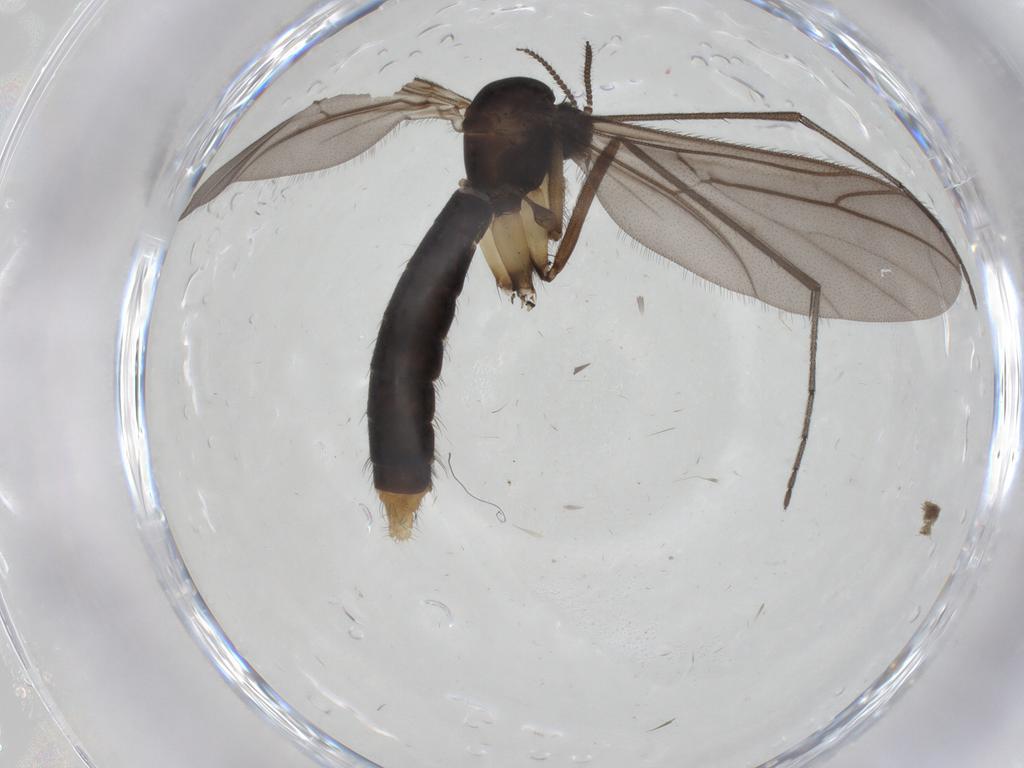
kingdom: Animalia
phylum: Arthropoda
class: Insecta
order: Diptera
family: Ditomyiidae
